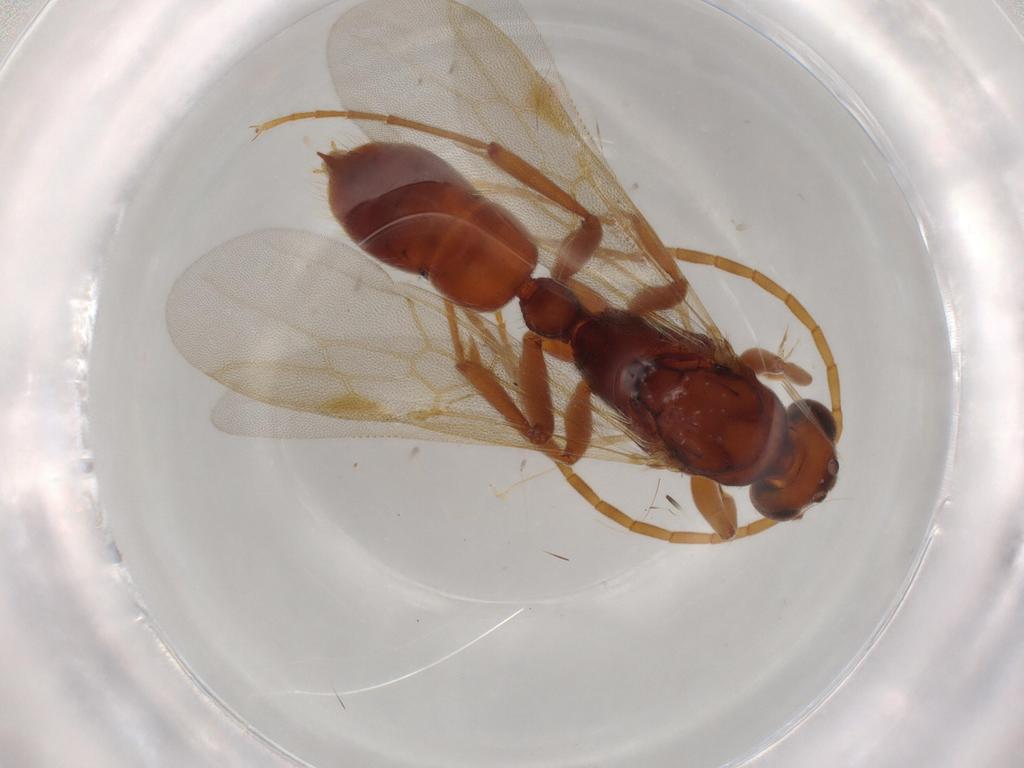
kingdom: Animalia
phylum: Arthropoda
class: Insecta
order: Hymenoptera
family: Formicidae
